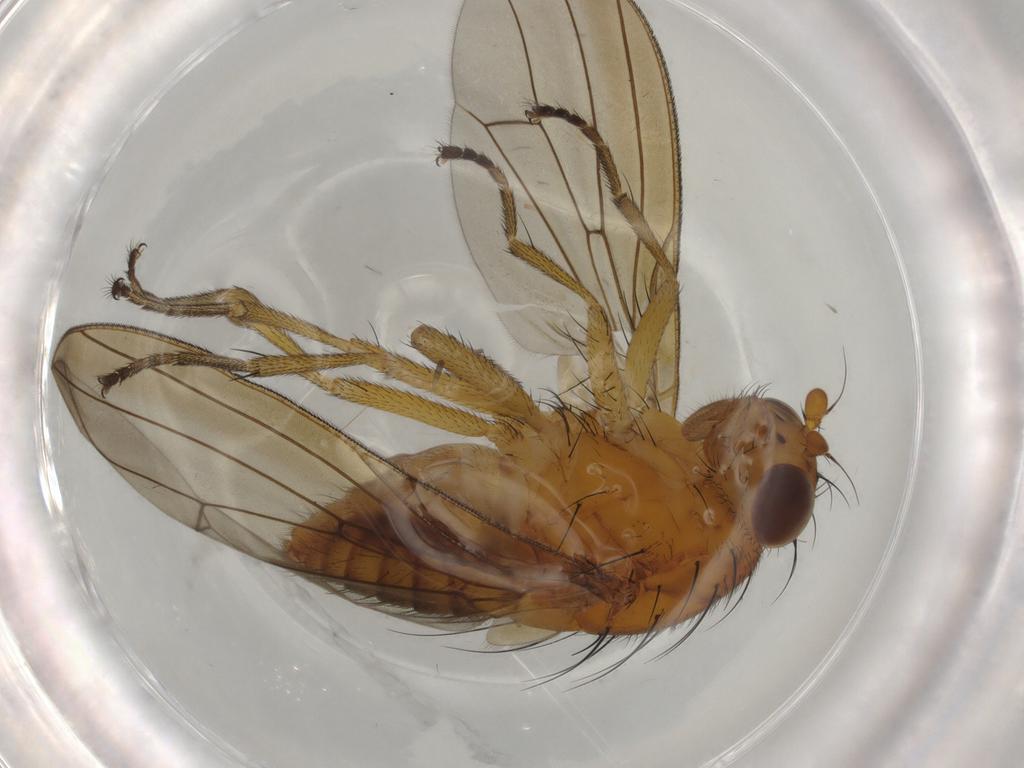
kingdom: Animalia
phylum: Arthropoda
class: Insecta
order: Diptera
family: Lauxaniidae
